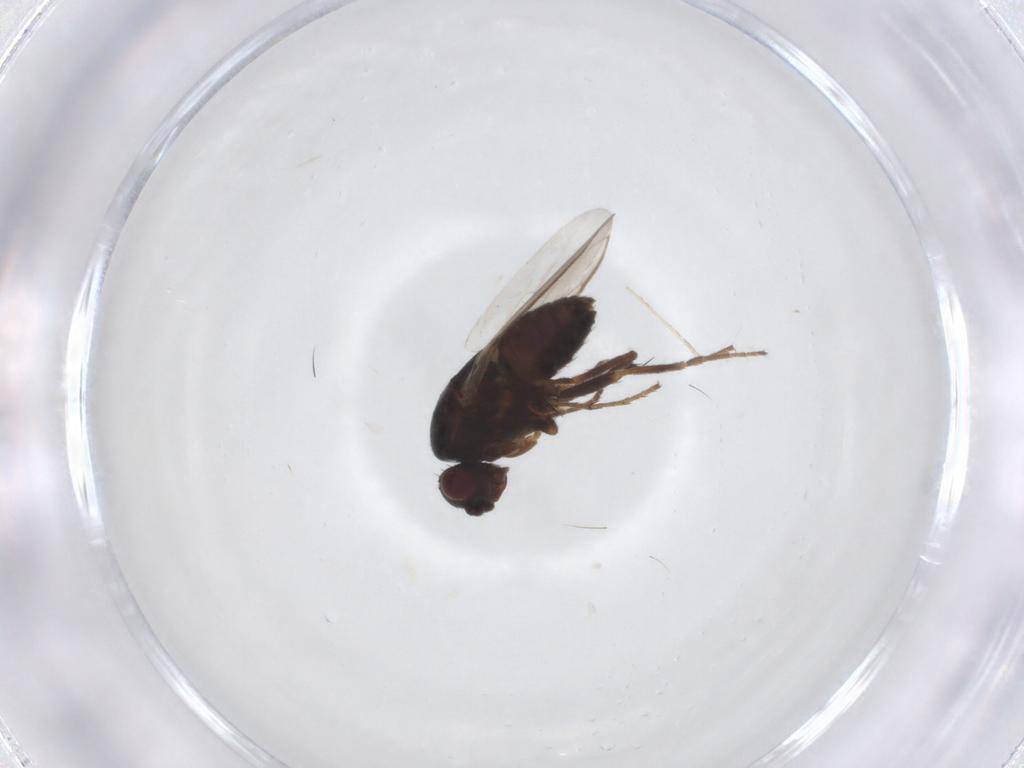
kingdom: Animalia
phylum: Arthropoda
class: Insecta
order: Diptera
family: Sphaeroceridae
